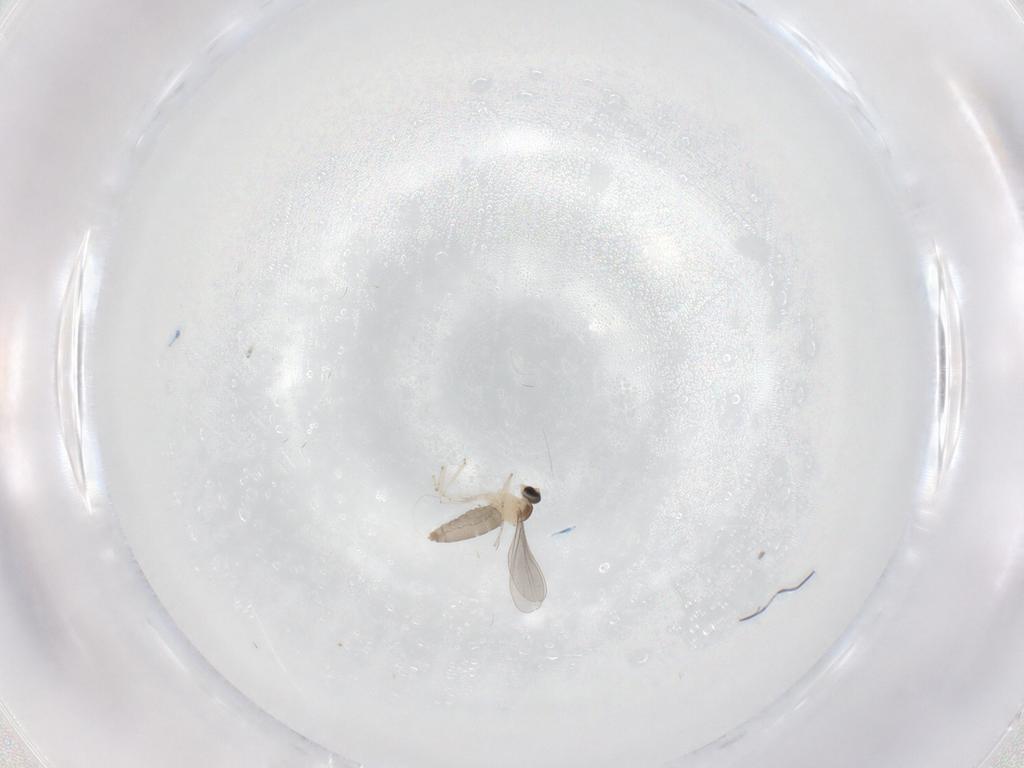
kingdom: Animalia
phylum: Arthropoda
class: Insecta
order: Diptera
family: Cecidomyiidae
